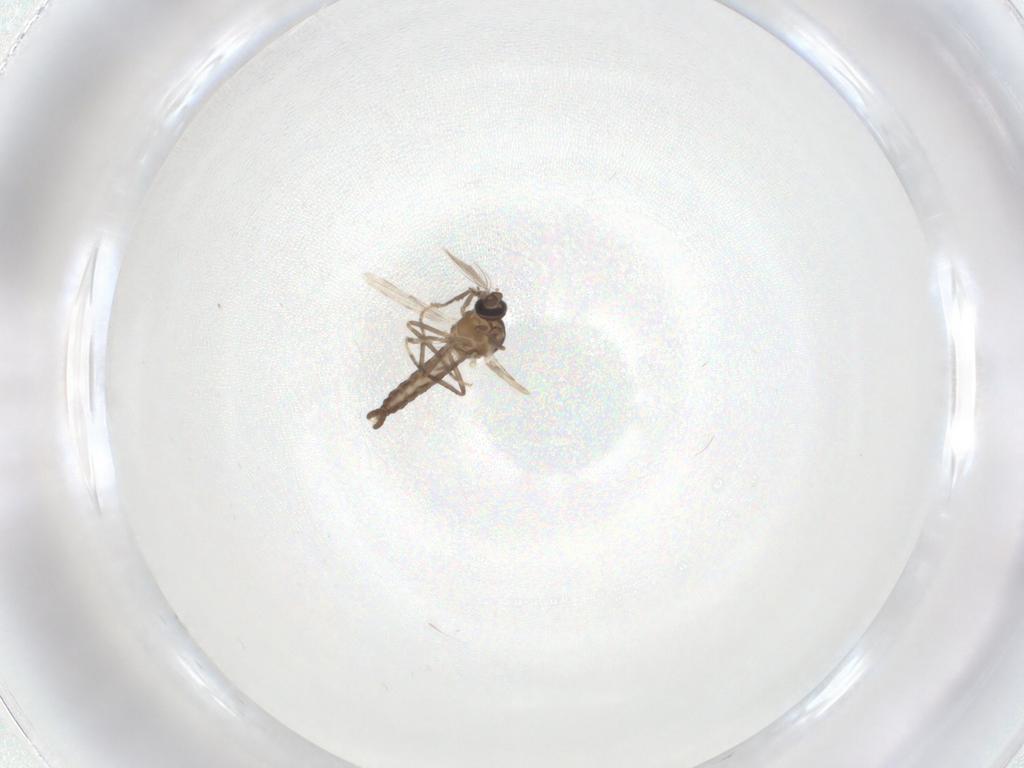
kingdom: Animalia
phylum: Arthropoda
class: Insecta
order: Diptera
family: Ceratopogonidae
